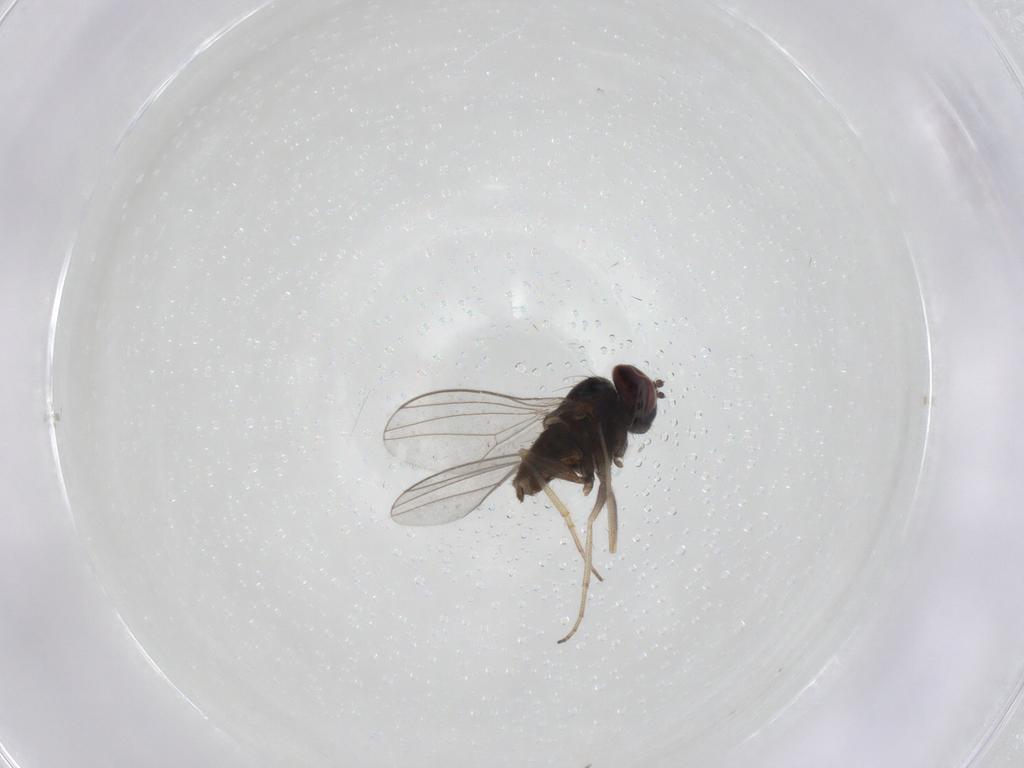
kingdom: Animalia
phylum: Arthropoda
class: Insecta
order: Diptera
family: Dolichopodidae
